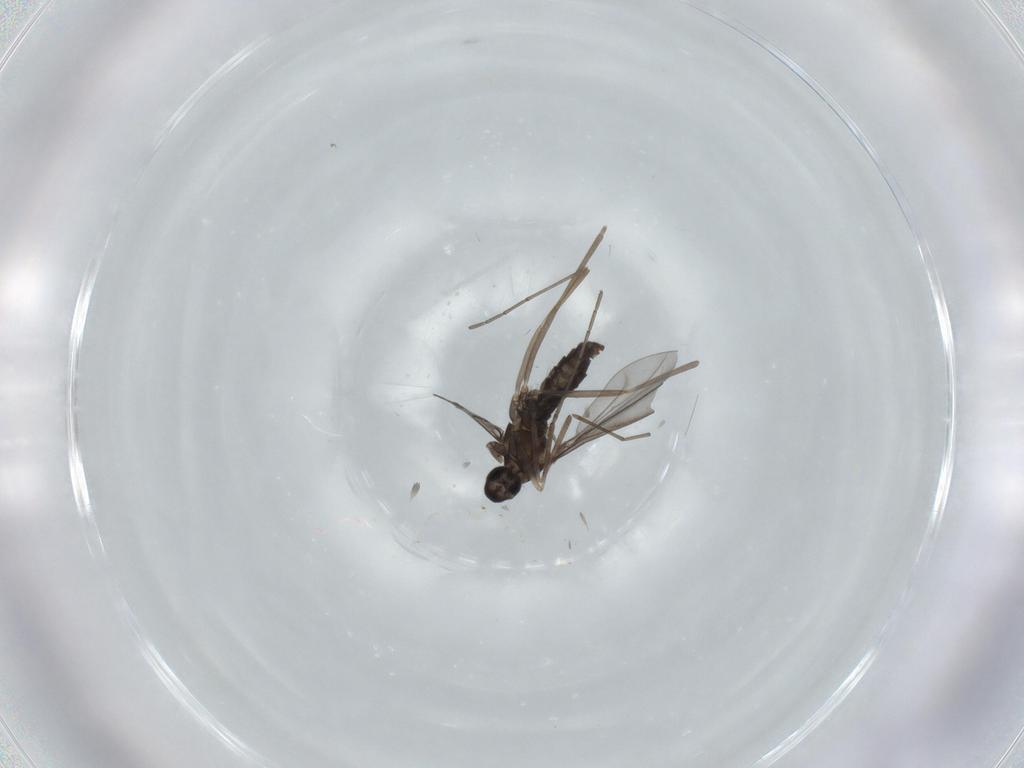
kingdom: Animalia
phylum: Arthropoda
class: Insecta
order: Diptera
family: Cecidomyiidae
